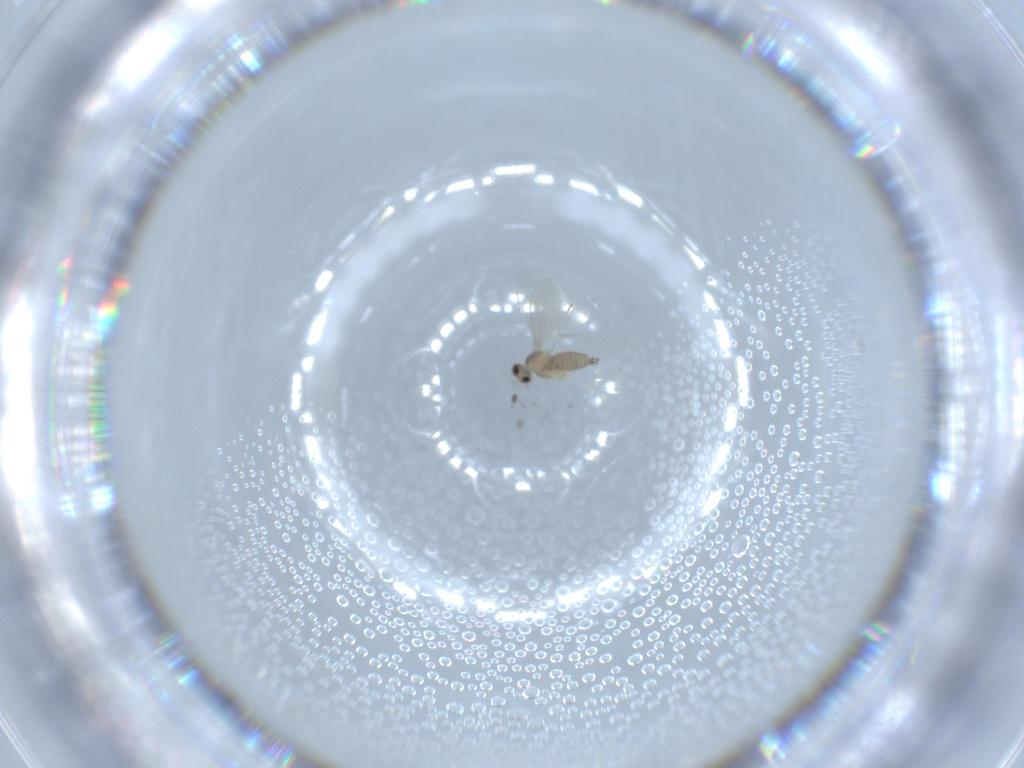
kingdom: Animalia
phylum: Arthropoda
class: Insecta
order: Diptera
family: Cecidomyiidae
